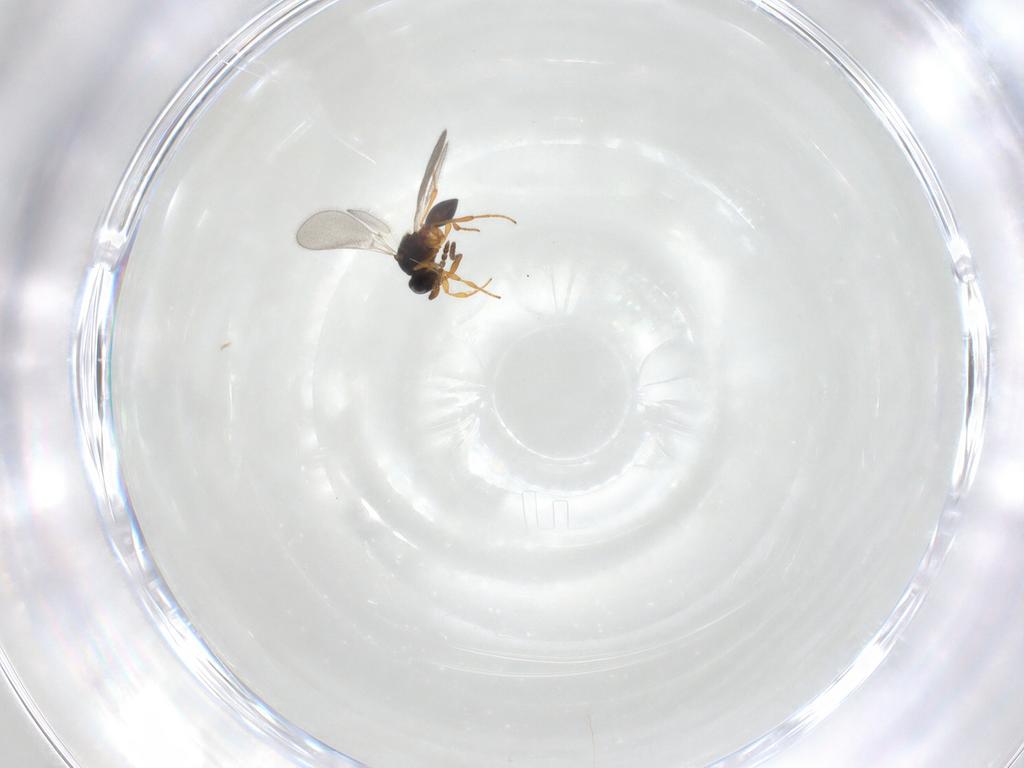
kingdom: Animalia
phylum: Arthropoda
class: Insecta
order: Hymenoptera
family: Platygastridae
